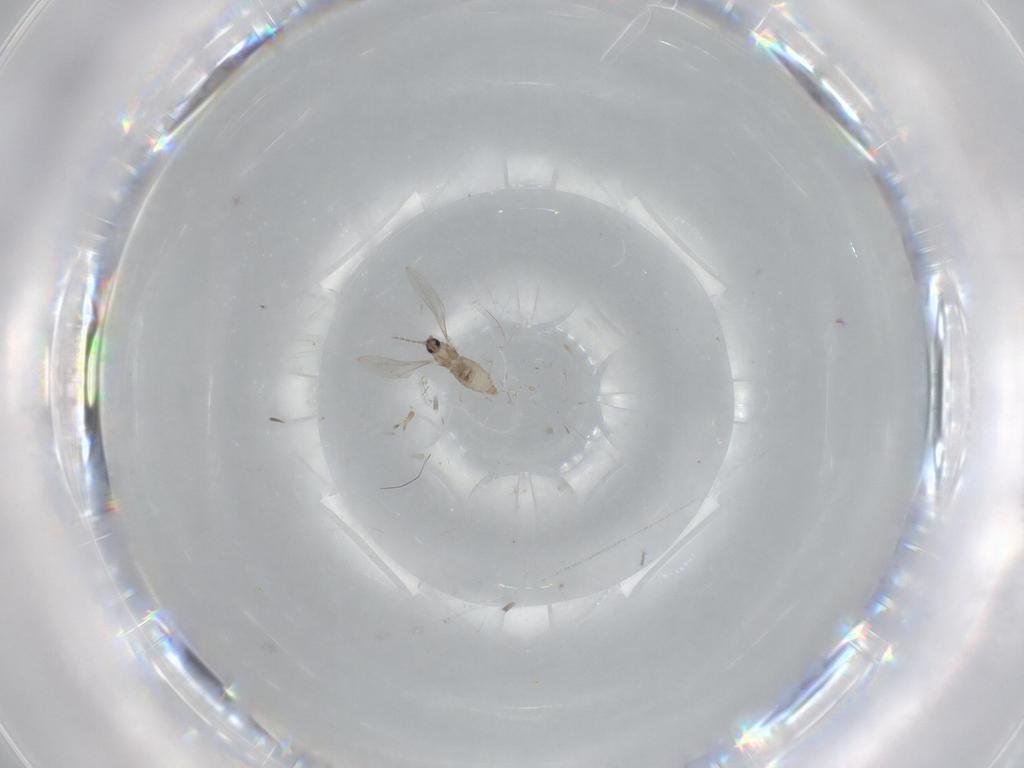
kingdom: Animalia
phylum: Arthropoda
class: Insecta
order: Diptera
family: Cecidomyiidae
